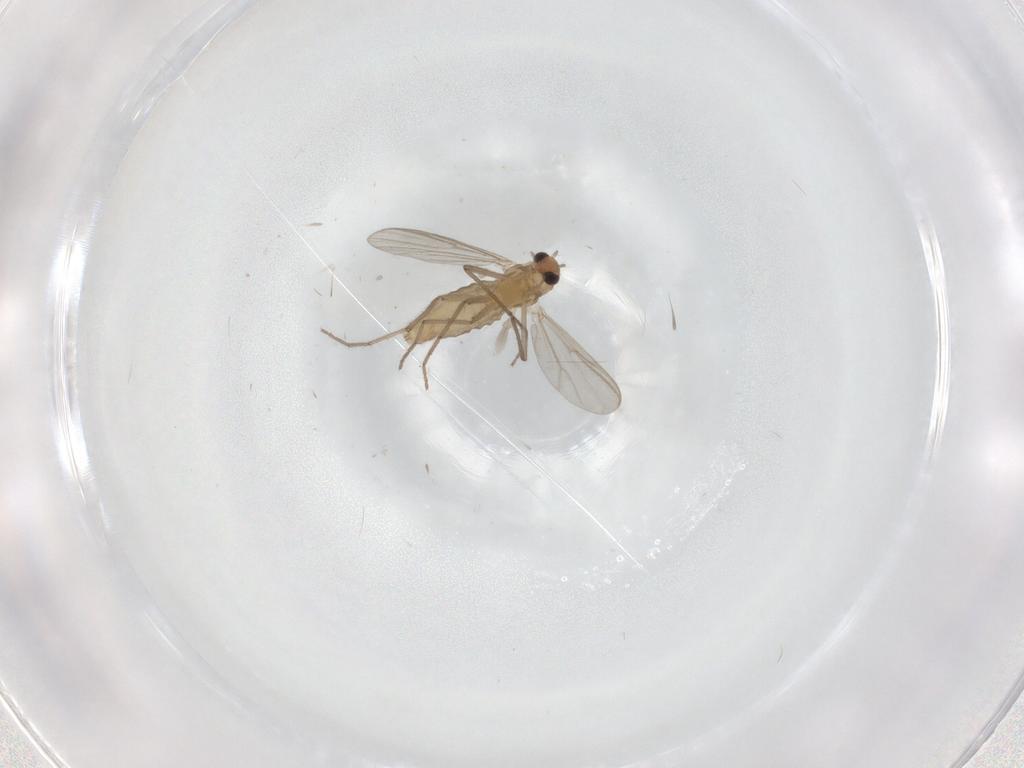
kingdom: Animalia
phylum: Arthropoda
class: Insecta
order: Diptera
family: Chironomidae
